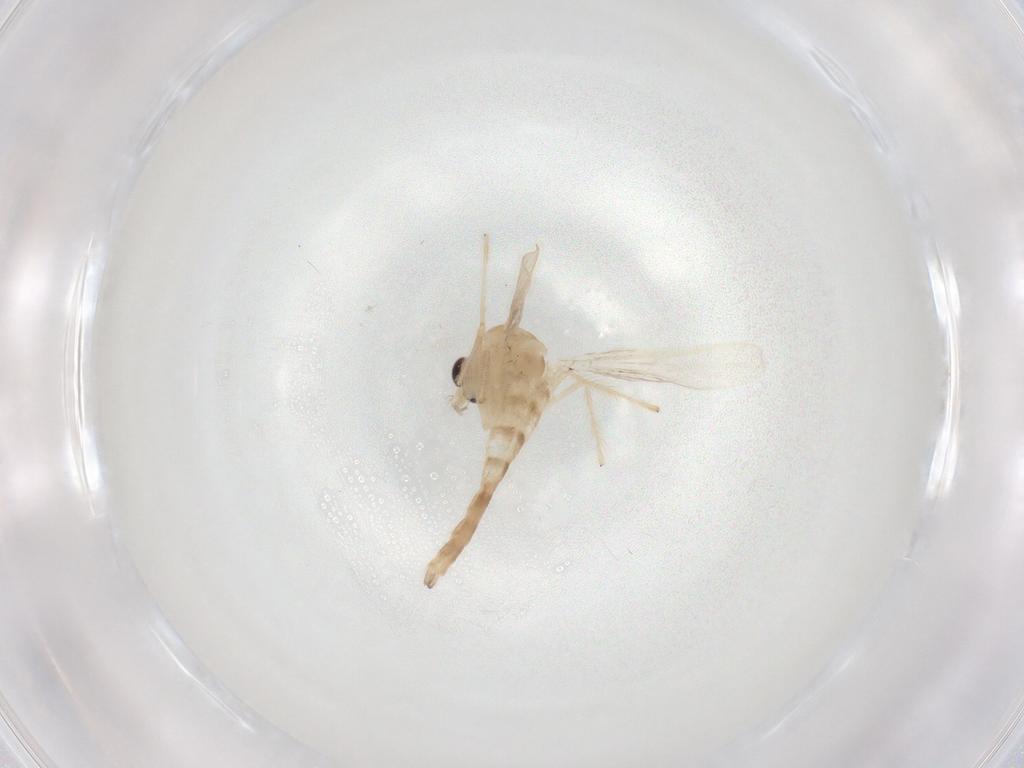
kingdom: Animalia
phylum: Arthropoda
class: Insecta
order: Diptera
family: Chironomidae
